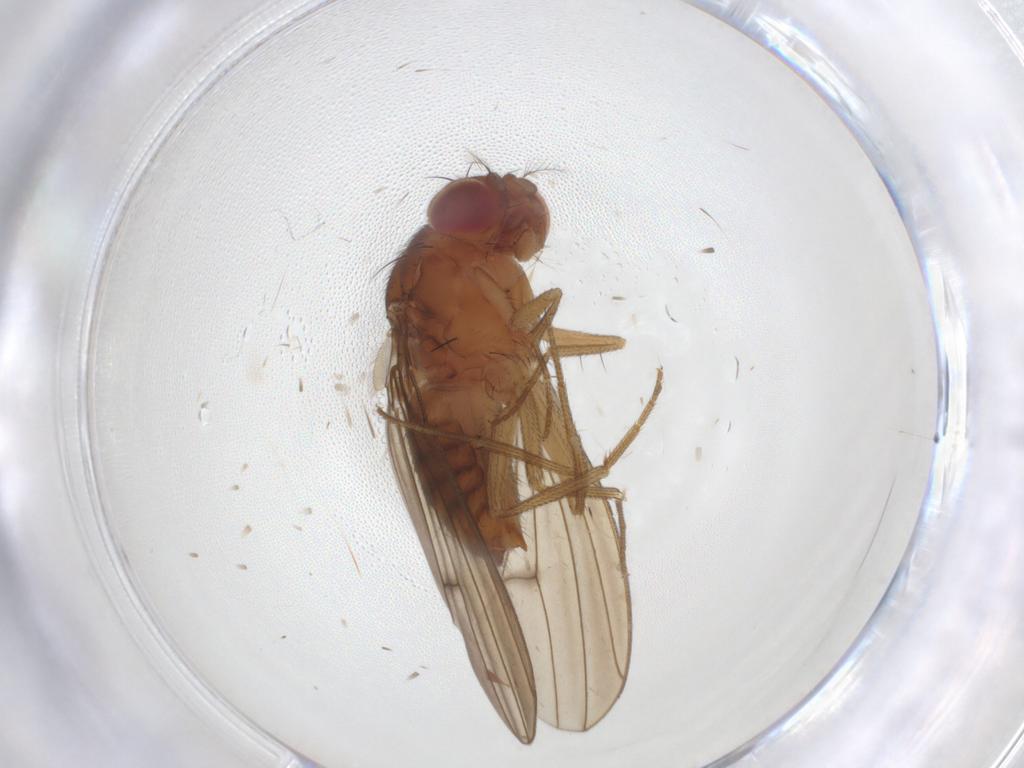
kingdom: Animalia
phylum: Arthropoda
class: Insecta
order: Diptera
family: Drosophilidae
